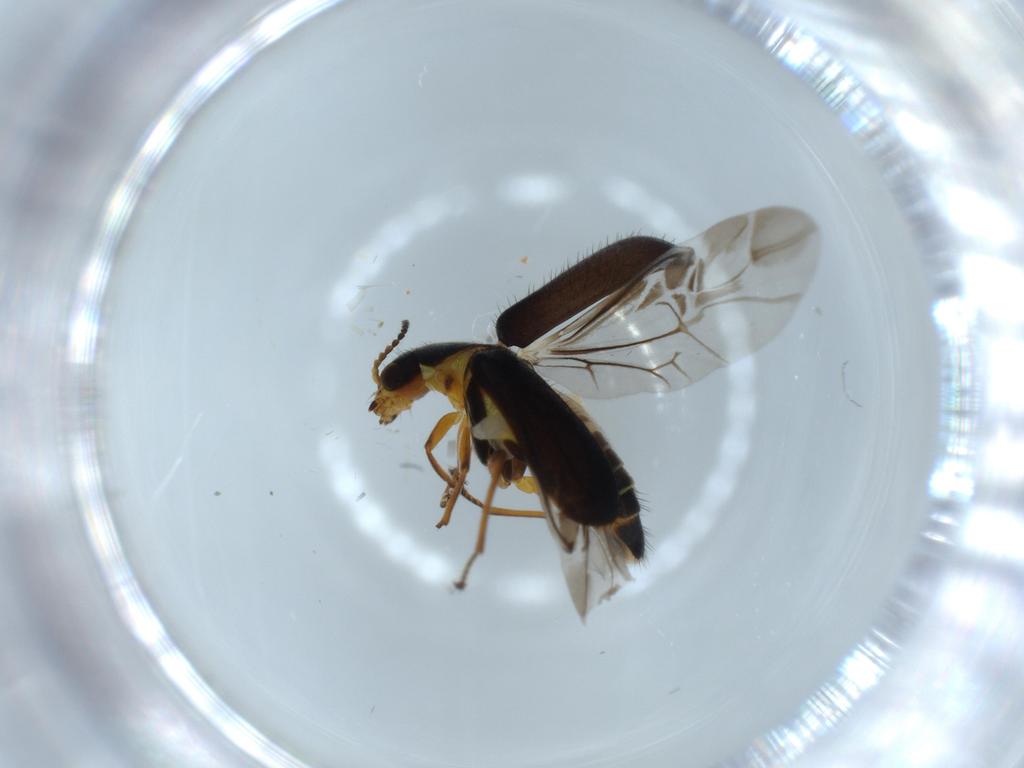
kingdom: Animalia
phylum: Arthropoda
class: Insecta
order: Coleoptera
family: Melyridae
